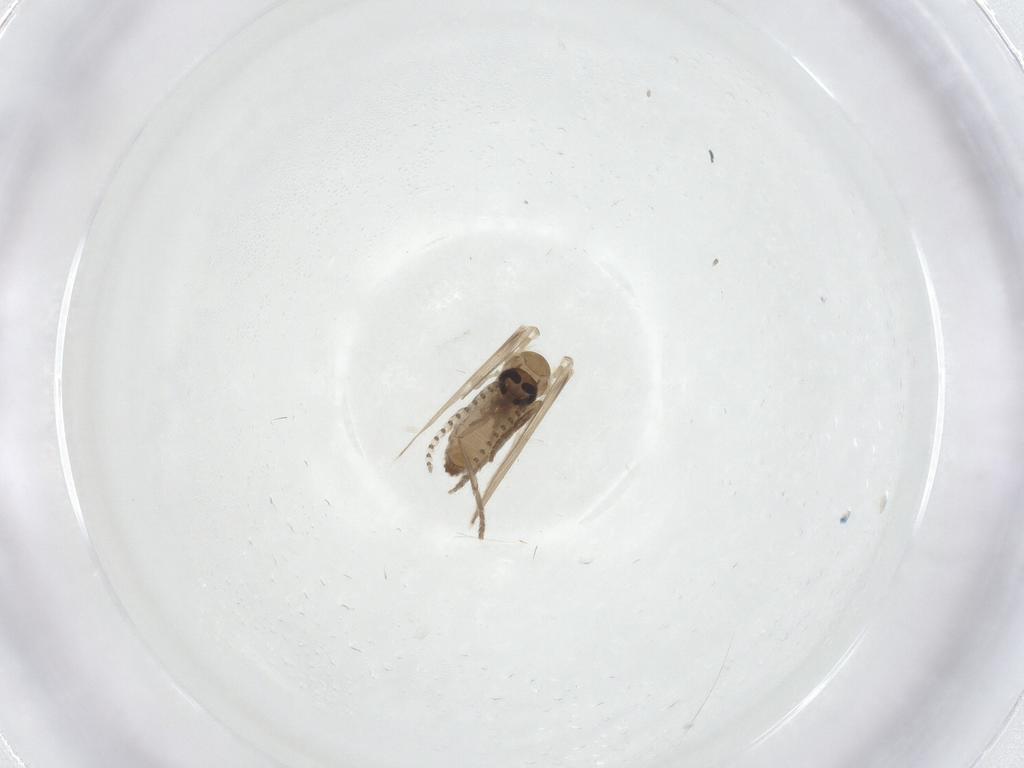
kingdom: Animalia
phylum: Arthropoda
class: Insecta
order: Diptera
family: Psychodidae
